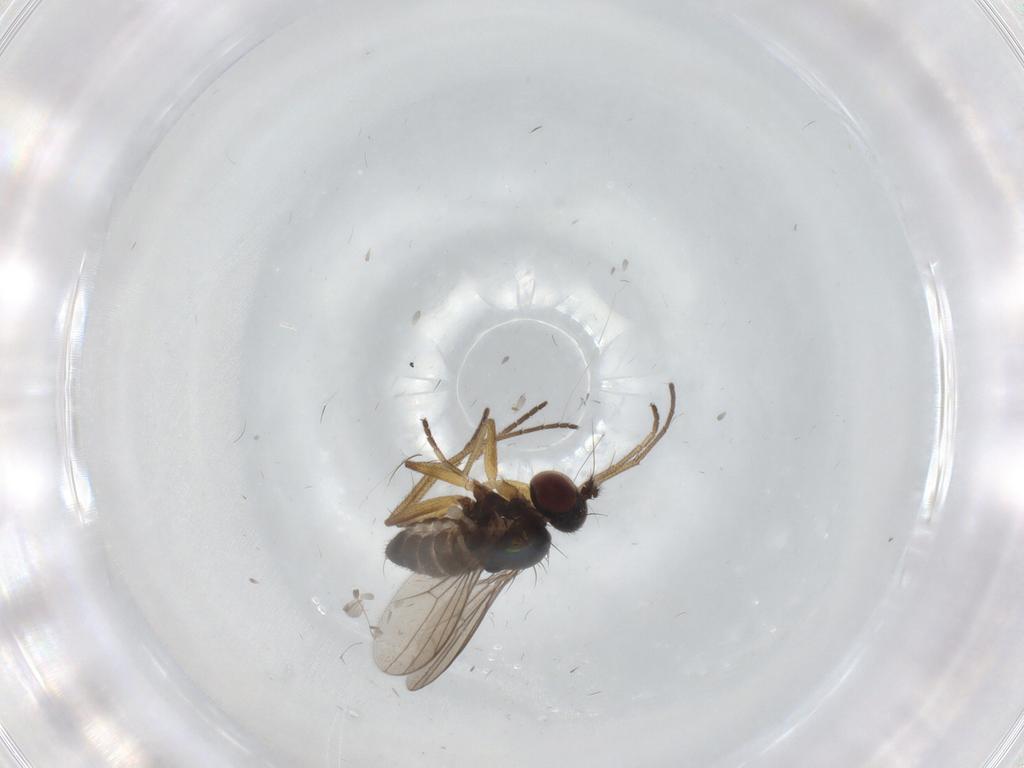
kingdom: Animalia
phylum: Arthropoda
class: Insecta
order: Diptera
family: Dolichopodidae
